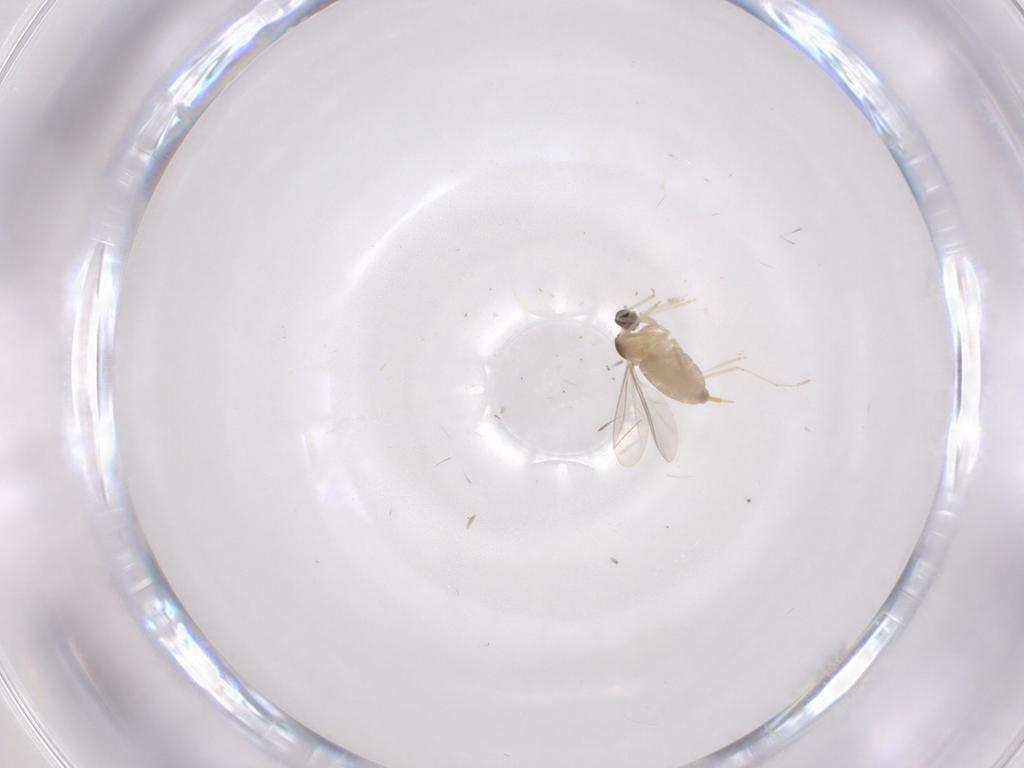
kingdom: Animalia
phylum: Arthropoda
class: Insecta
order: Diptera
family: Cecidomyiidae
